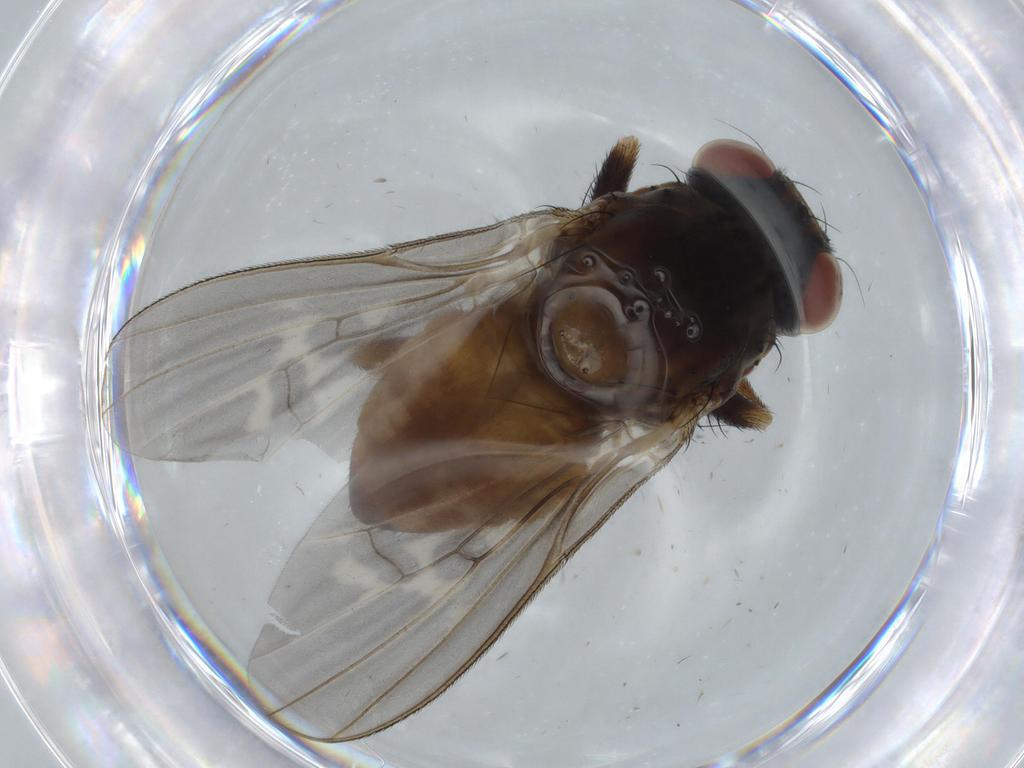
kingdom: Animalia
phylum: Arthropoda
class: Insecta
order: Diptera
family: Odiniidae
